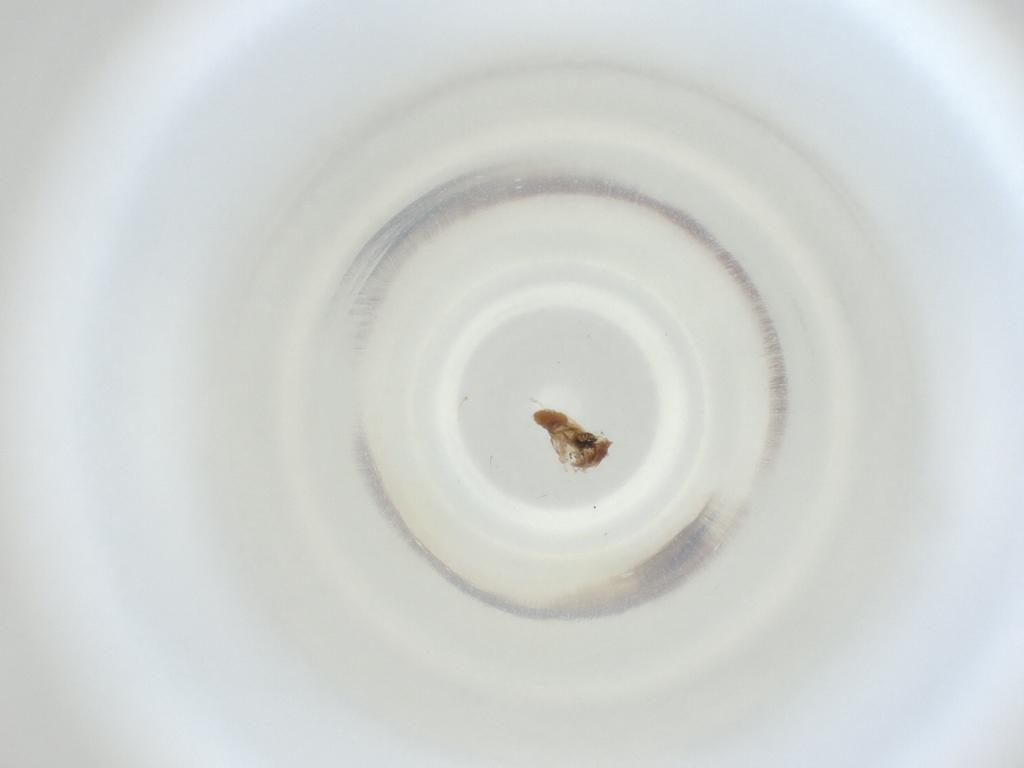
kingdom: Animalia
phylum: Arthropoda
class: Insecta
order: Diptera
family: Cecidomyiidae
